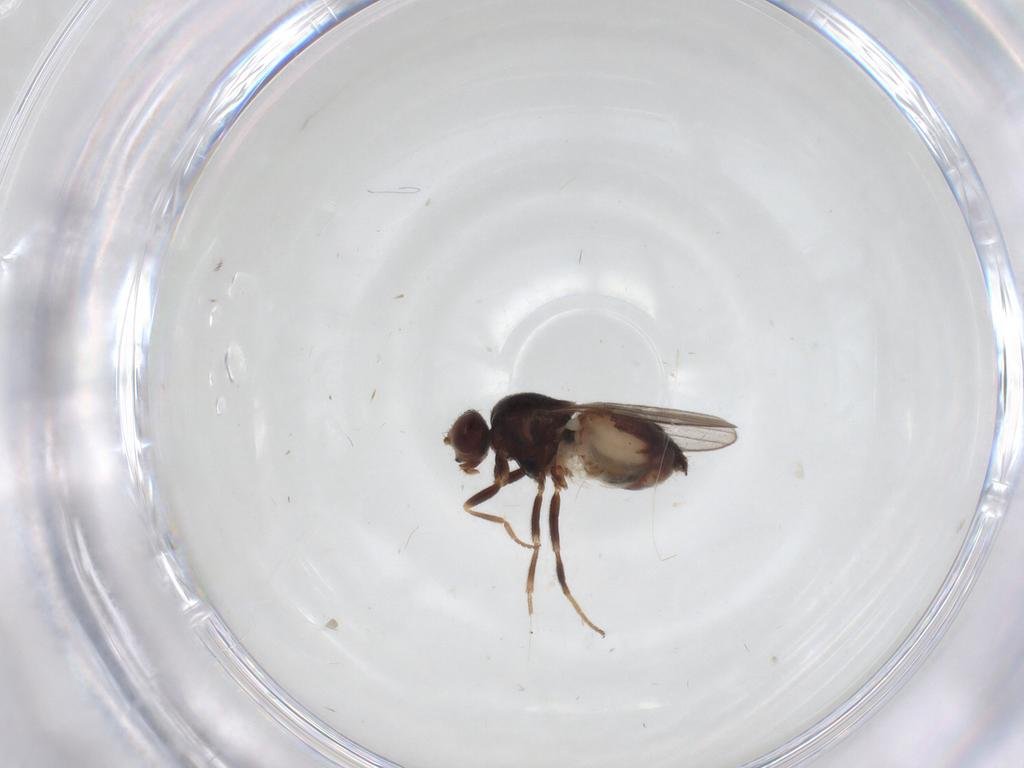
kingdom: Animalia
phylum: Arthropoda
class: Insecta
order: Diptera
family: Chloropidae
